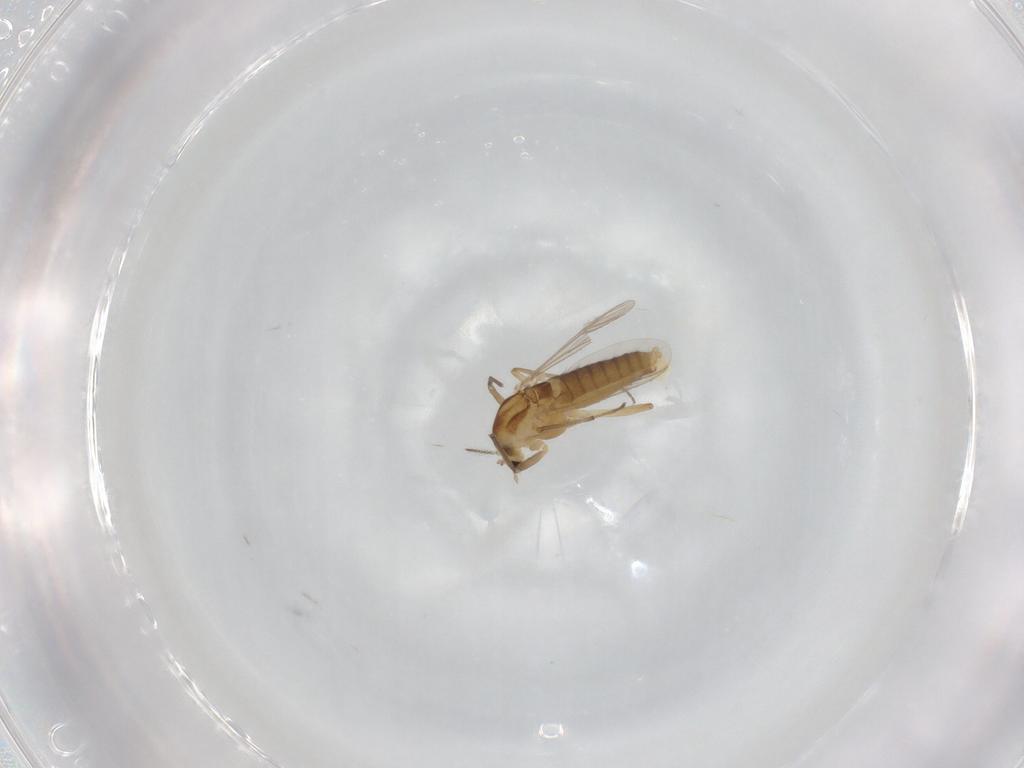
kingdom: Animalia
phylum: Arthropoda
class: Insecta
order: Diptera
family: Chironomidae
